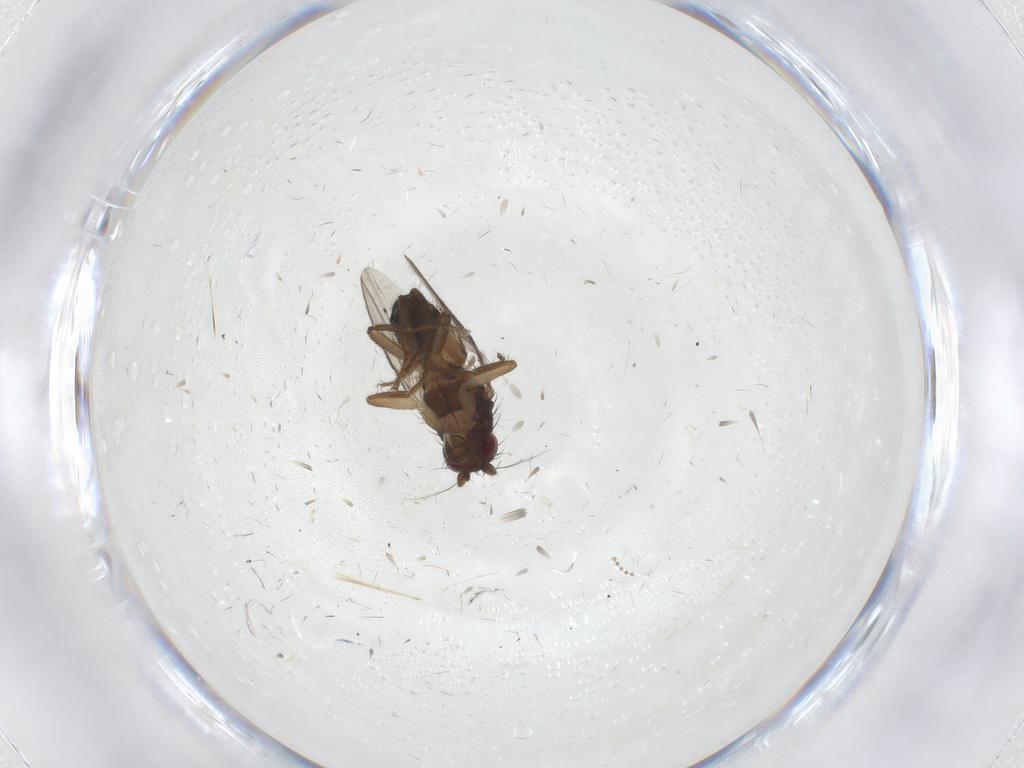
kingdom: Animalia
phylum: Arthropoda
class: Insecta
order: Diptera
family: Sphaeroceridae
